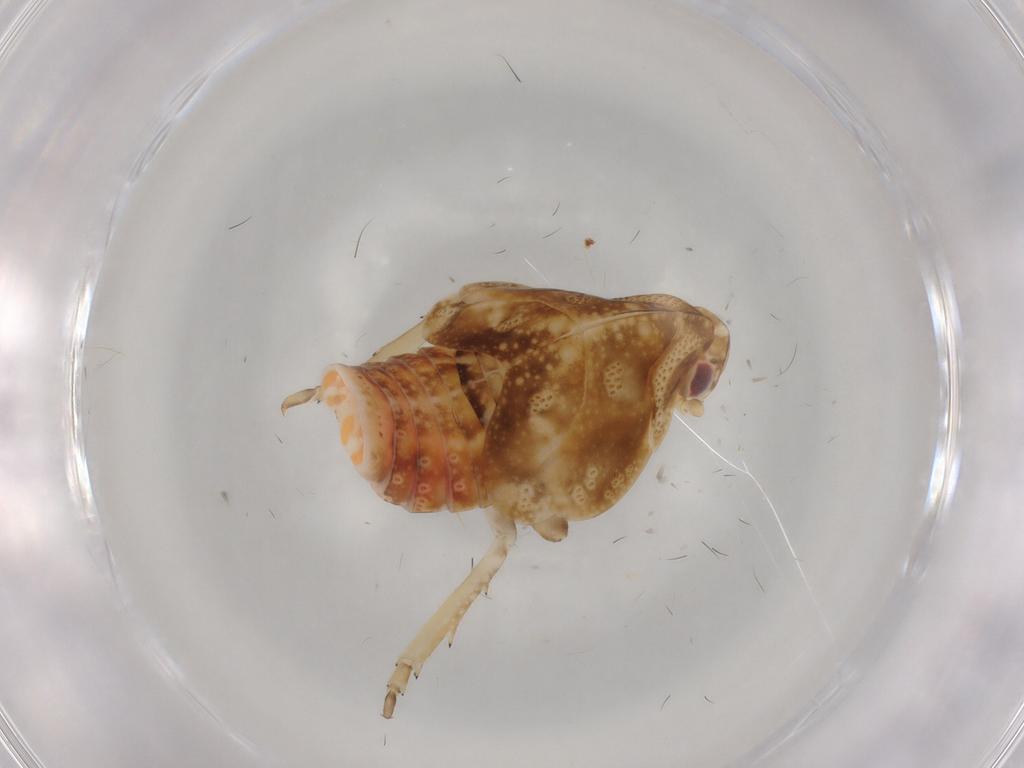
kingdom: Animalia
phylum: Arthropoda
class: Insecta
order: Hemiptera
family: Flatidae
